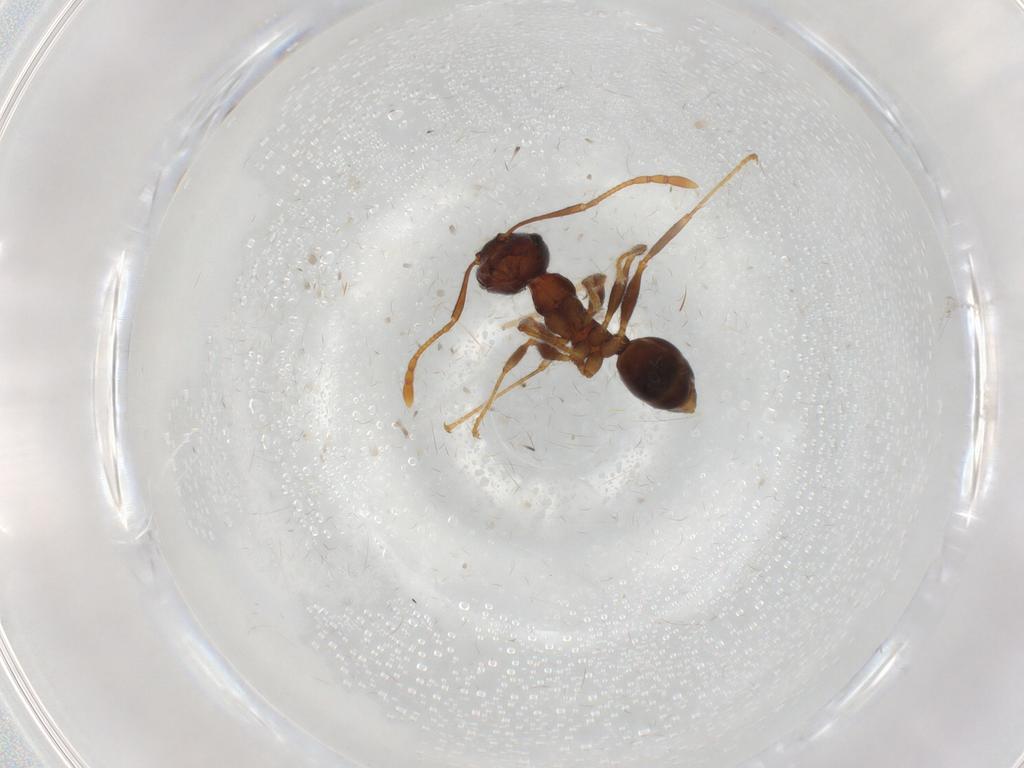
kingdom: Animalia
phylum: Arthropoda
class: Insecta
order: Hymenoptera
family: Formicidae
